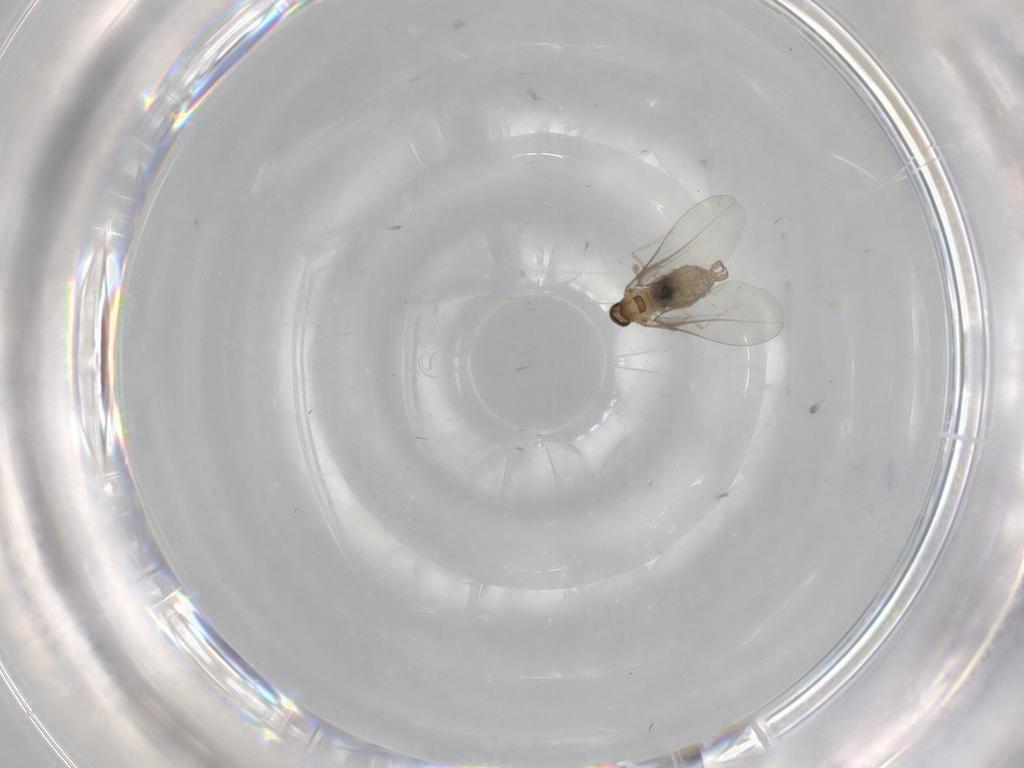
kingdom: Animalia
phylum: Arthropoda
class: Insecta
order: Diptera
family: Cecidomyiidae
